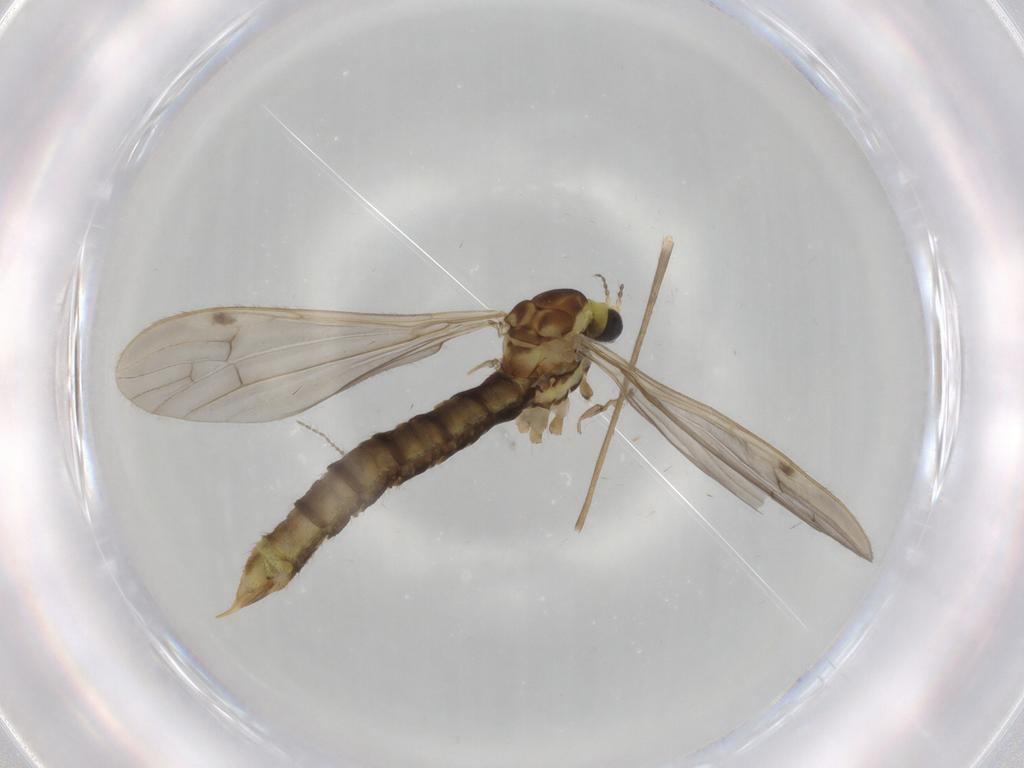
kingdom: Animalia
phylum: Arthropoda
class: Insecta
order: Diptera
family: Limoniidae
